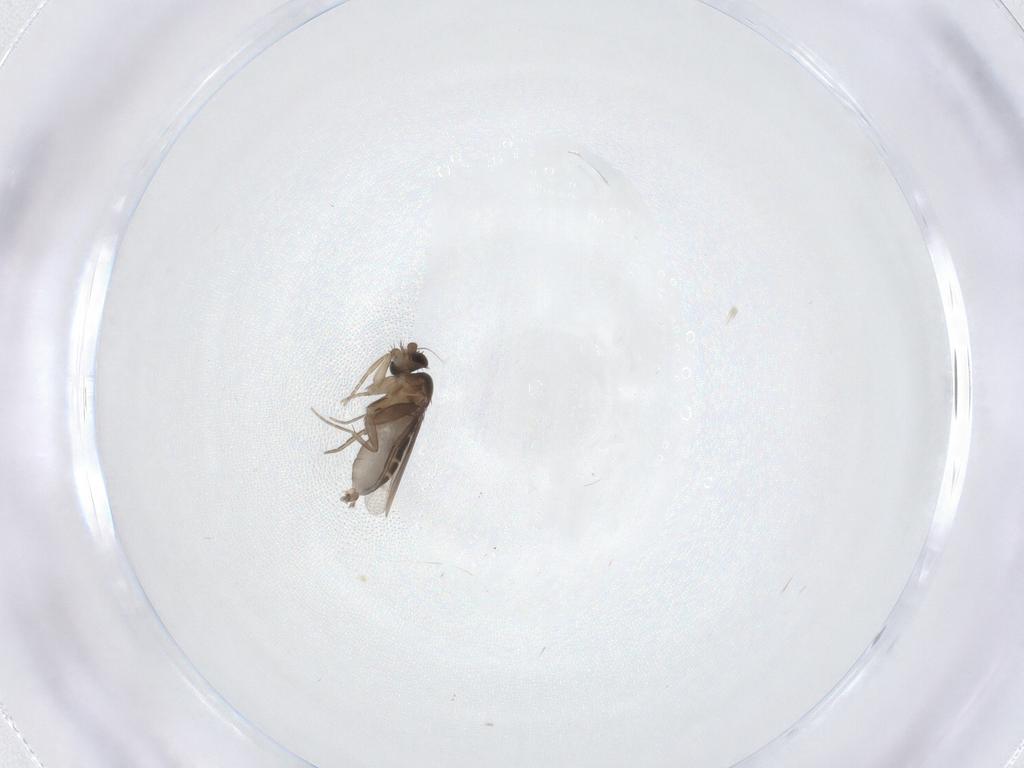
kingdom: Animalia
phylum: Arthropoda
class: Insecta
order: Diptera
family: Phoridae
